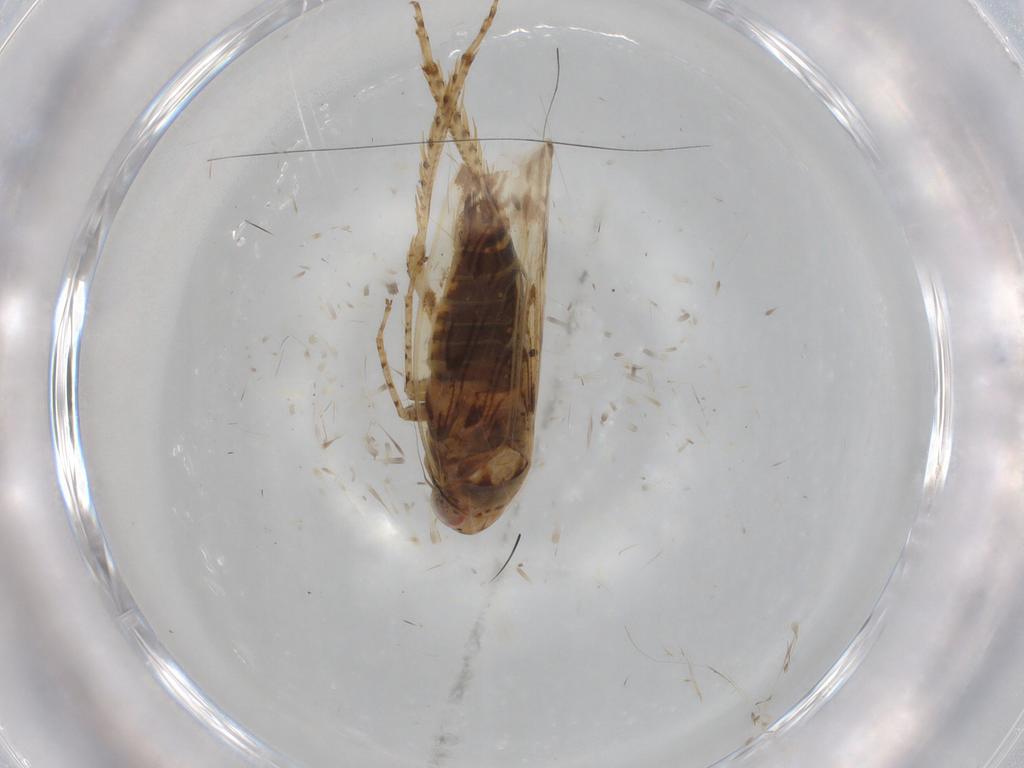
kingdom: Animalia
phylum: Arthropoda
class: Insecta
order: Hemiptera
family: Cicadellidae
